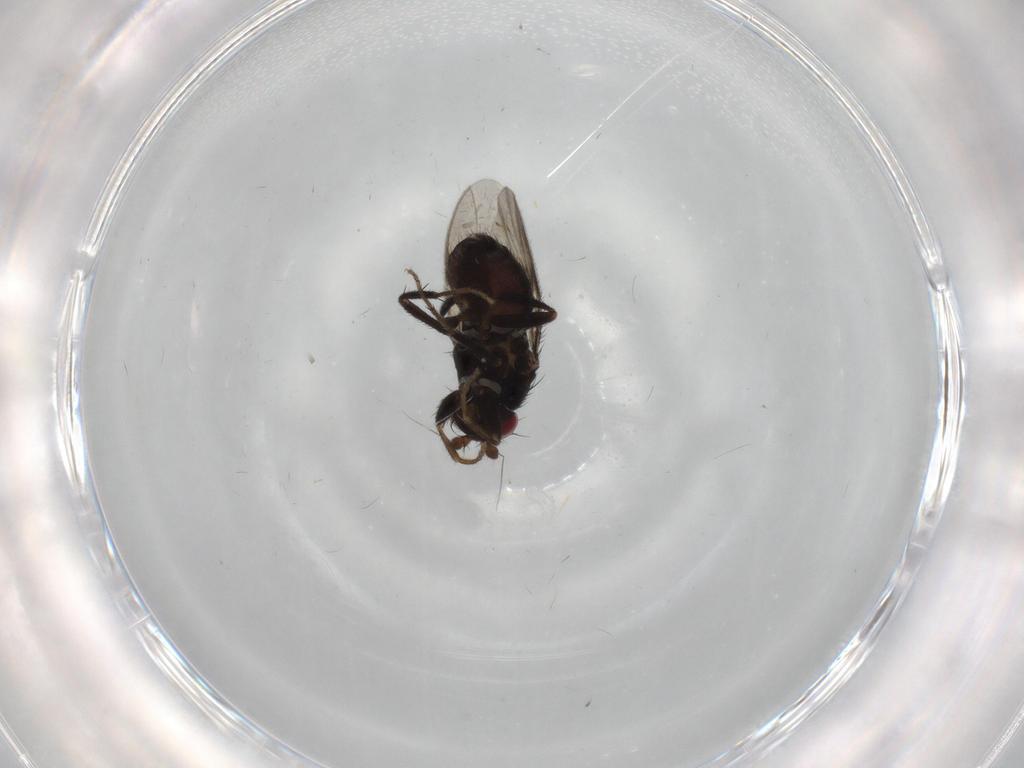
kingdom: Animalia
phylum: Arthropoda
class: Insecta
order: Diptera
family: Sphaeroceridae
